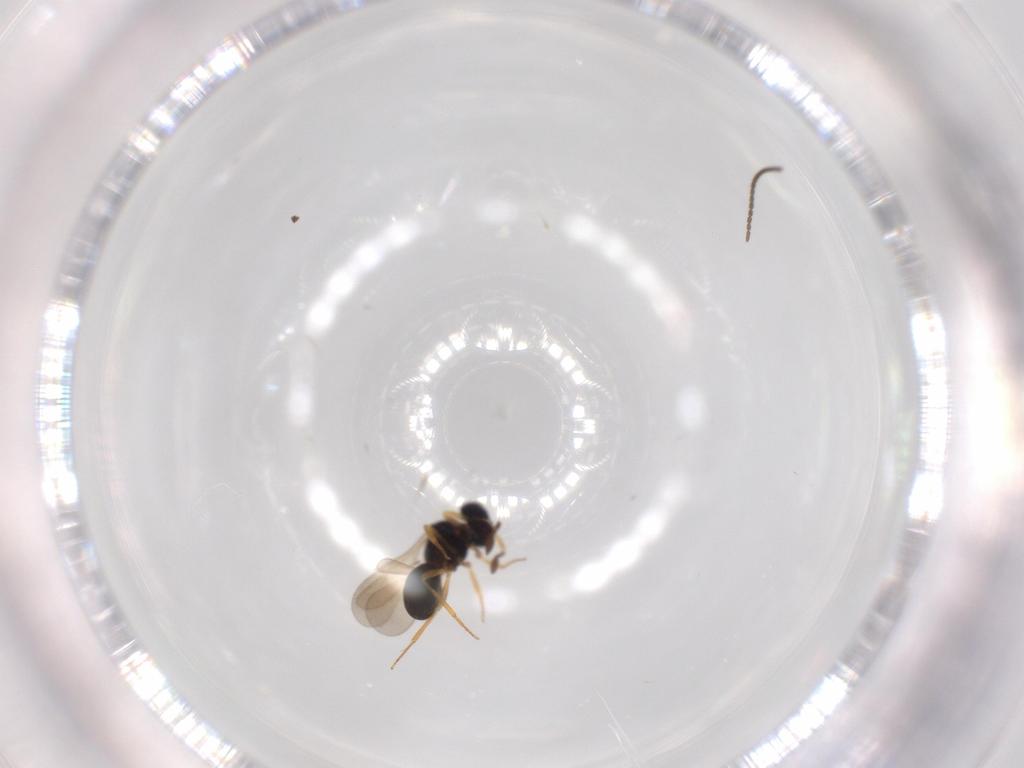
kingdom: Animalia
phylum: Arthropoda
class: Insecta
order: Hymenoptera
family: Scelionidae
